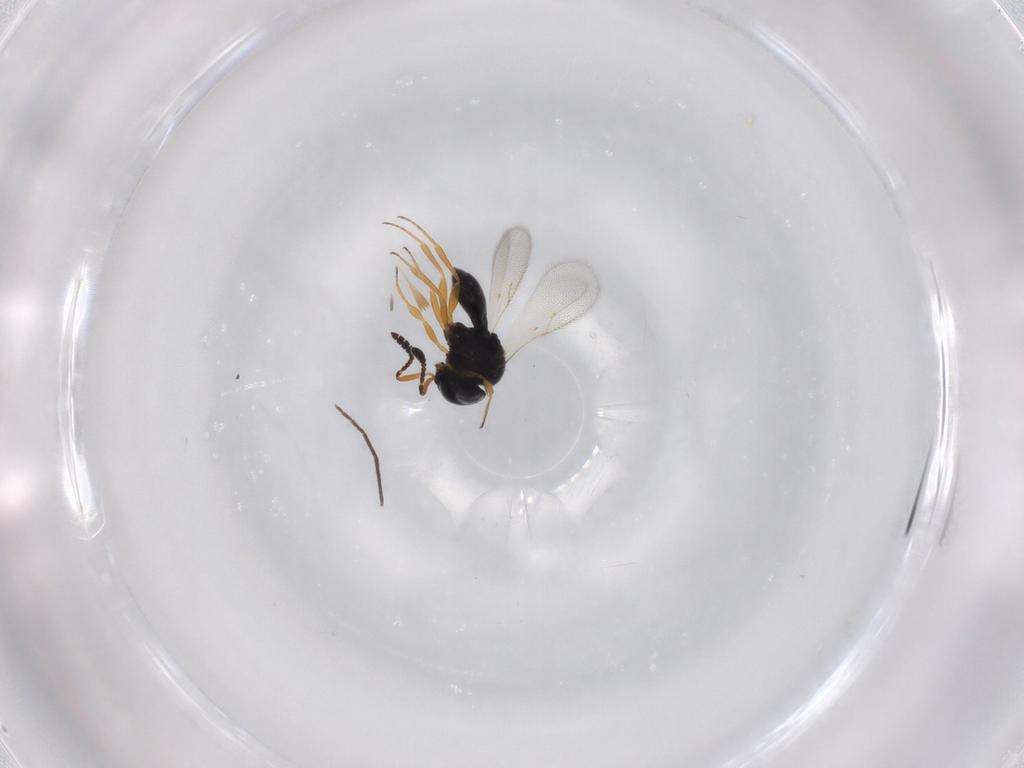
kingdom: Animalia
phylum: Arthropoda
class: Insecta
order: Hymenoptera
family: Scelionidae
